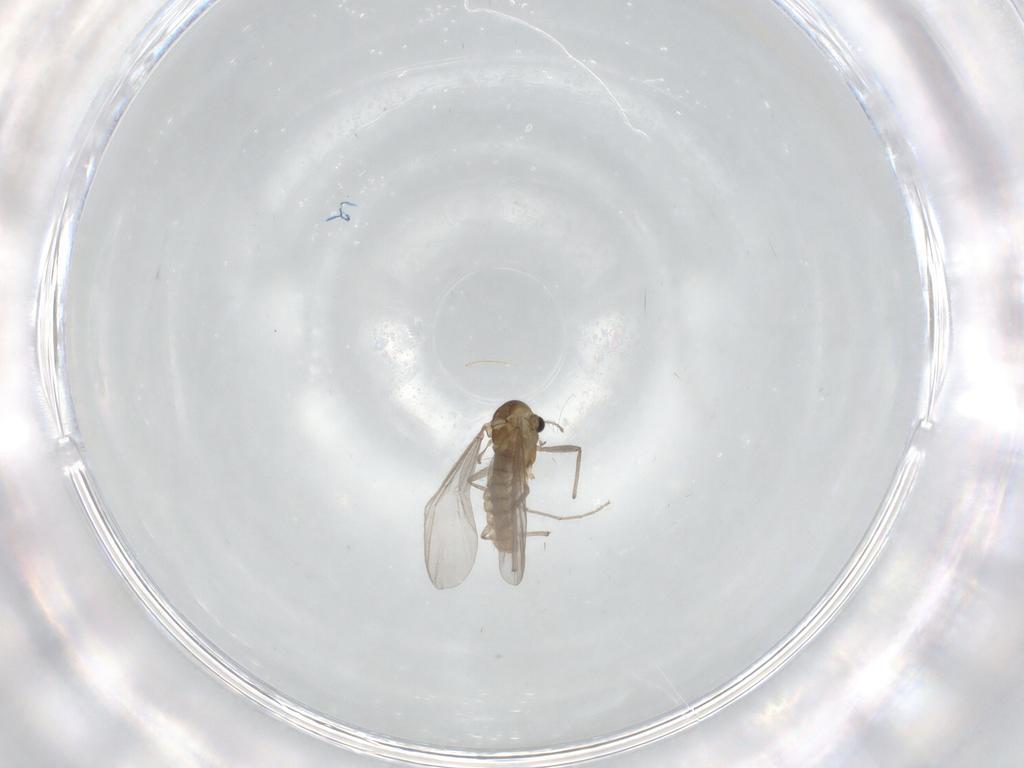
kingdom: Animalia
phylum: Arthropoda
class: Insecta
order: Diptera
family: Chironomidae
